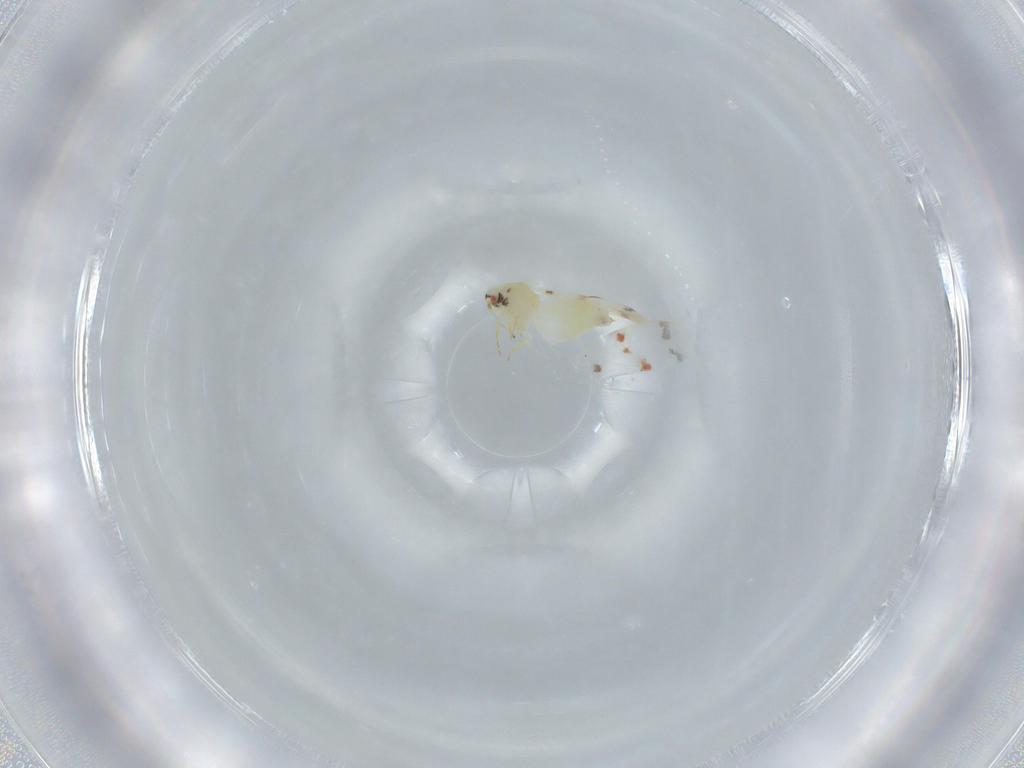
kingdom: Animalia
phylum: Arthropoda
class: Insecta
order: Hemiptera
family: Aleyrodidae
